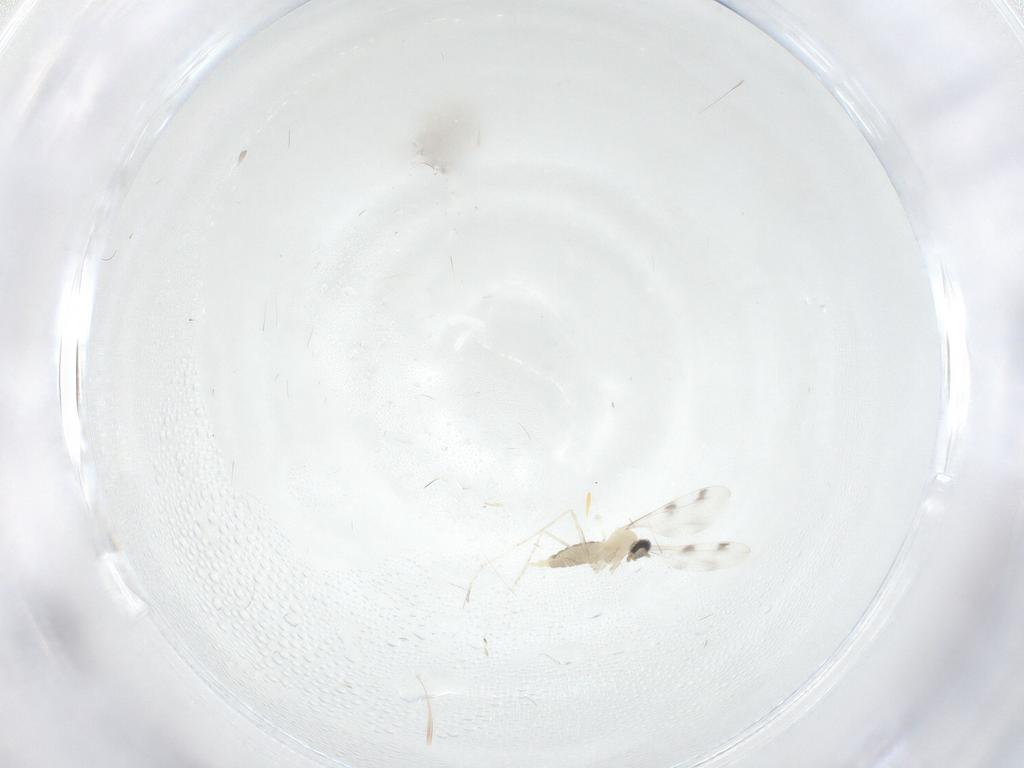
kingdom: Animalia
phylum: Arthropoda
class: Insecta
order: Diptera
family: Cecidomyiidae
